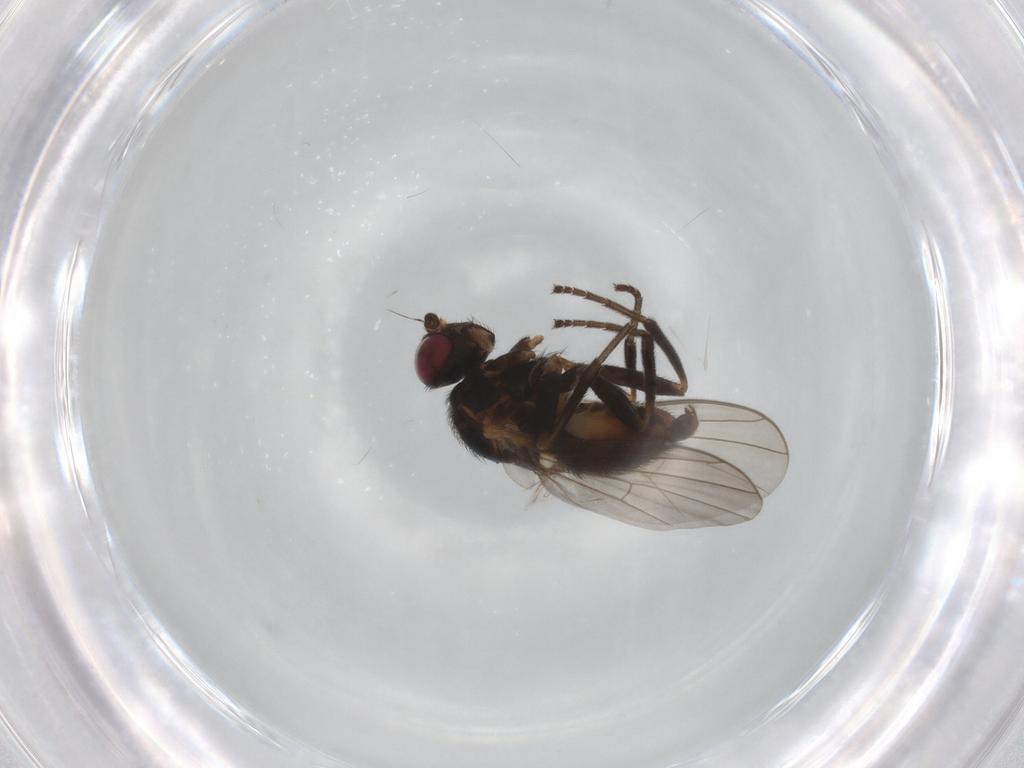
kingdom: Animalia
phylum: Arthropoda
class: Insecta
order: Diptera
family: Agromyzidae
